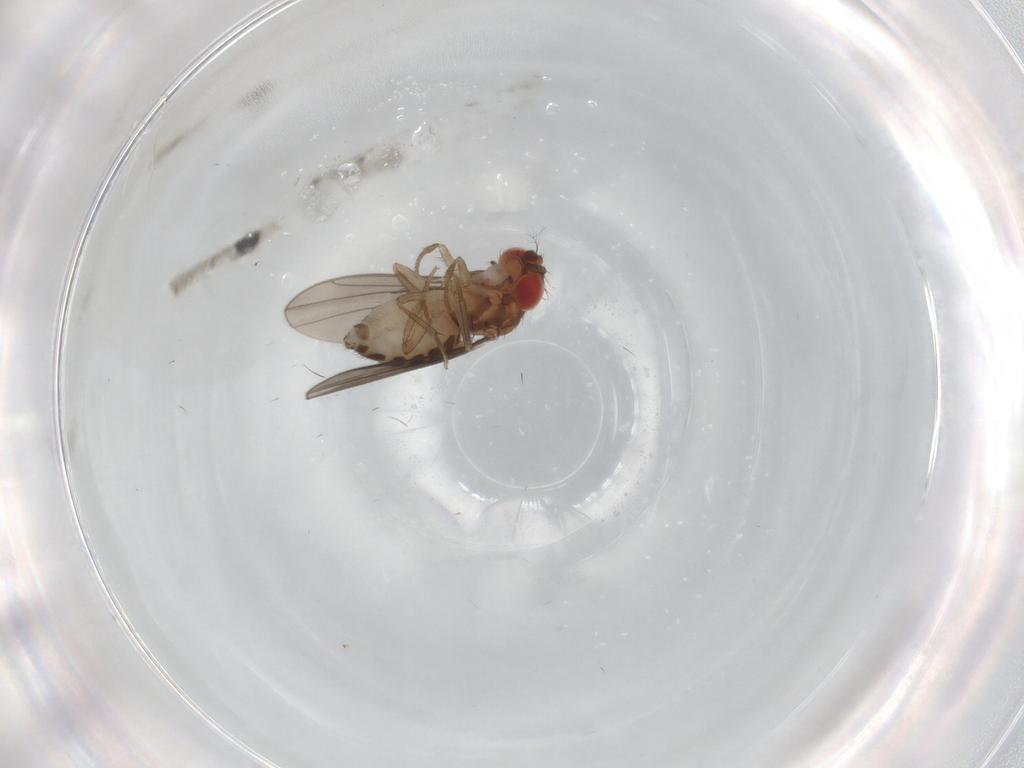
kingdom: Animalia
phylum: Arthropoda
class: Insecta
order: Diptera
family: Drosophilidae
